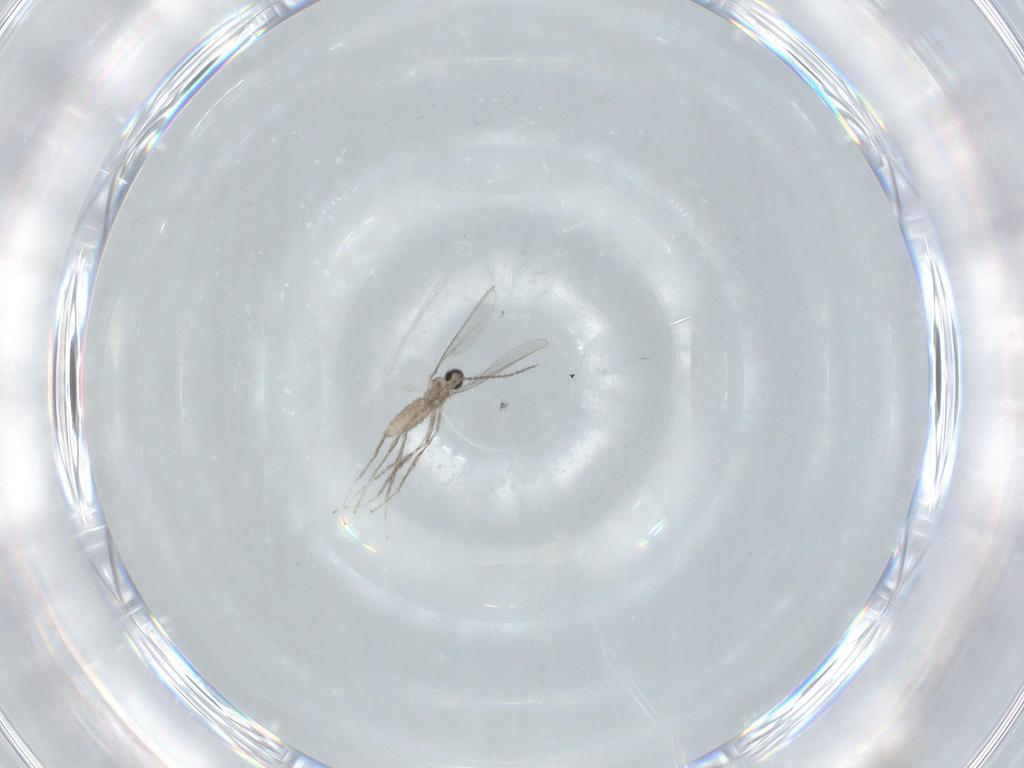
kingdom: Animalia
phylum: Arthropoda
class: Insecta
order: Diptera
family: Cecidomyiidae
